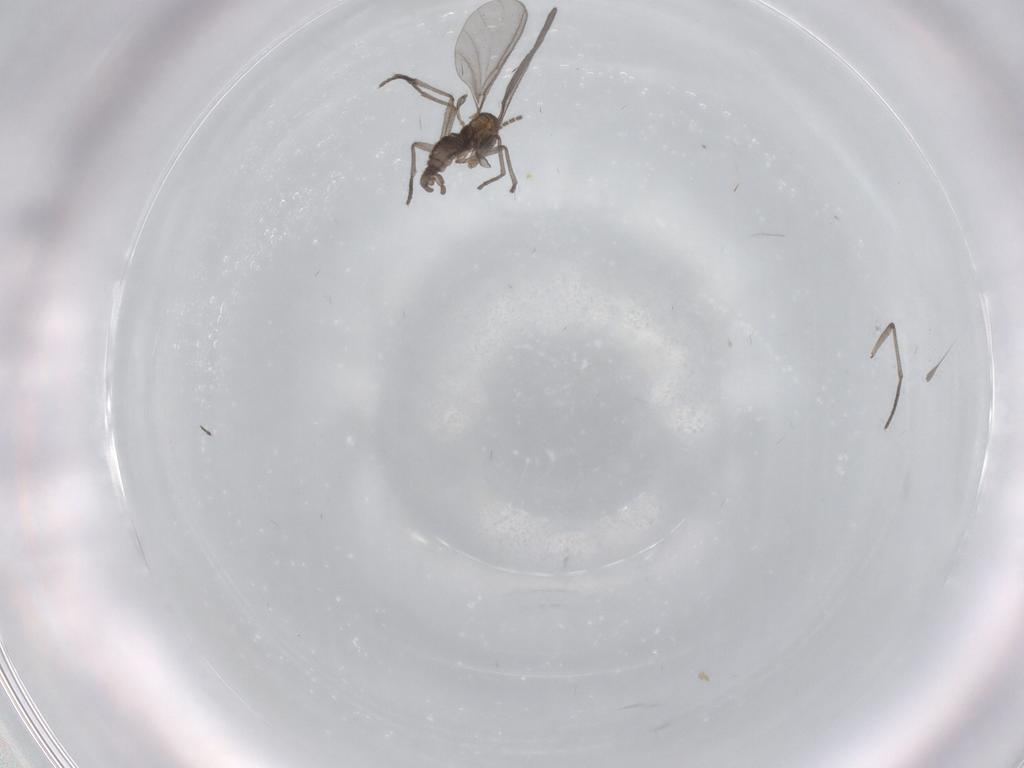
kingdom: Animalia
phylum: Arthropoda
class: Insecta
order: Diptera
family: Sciaridae
